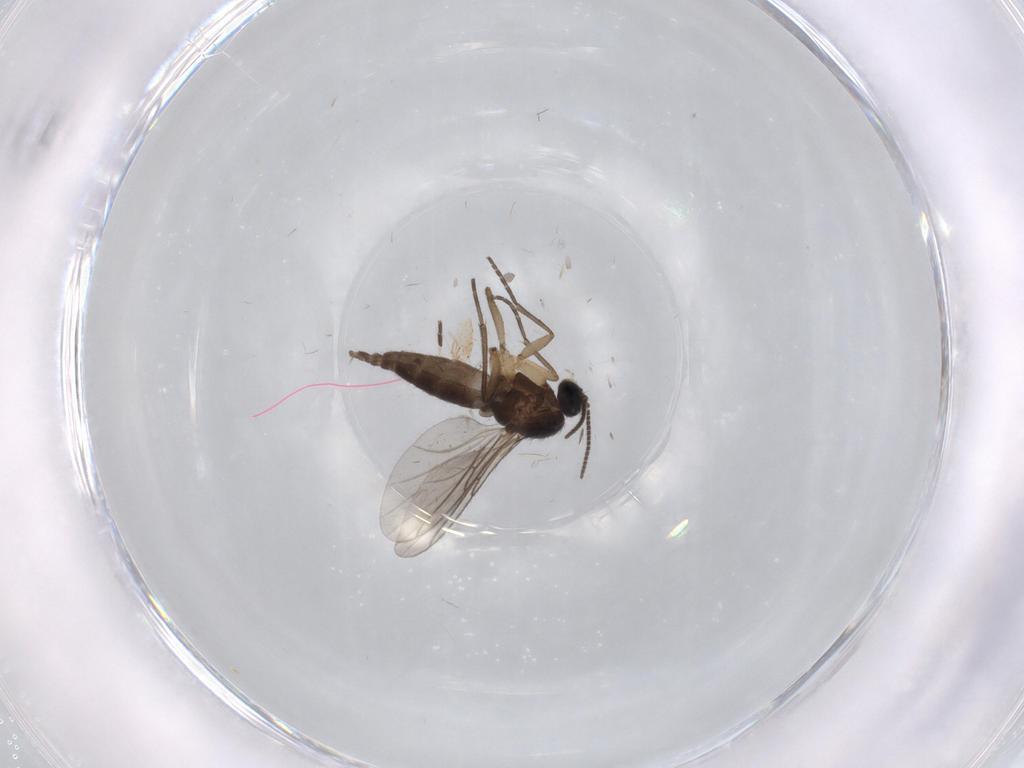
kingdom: Animalia
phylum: Arthropoda
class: Insecta
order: Diptera
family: Sciaridae
